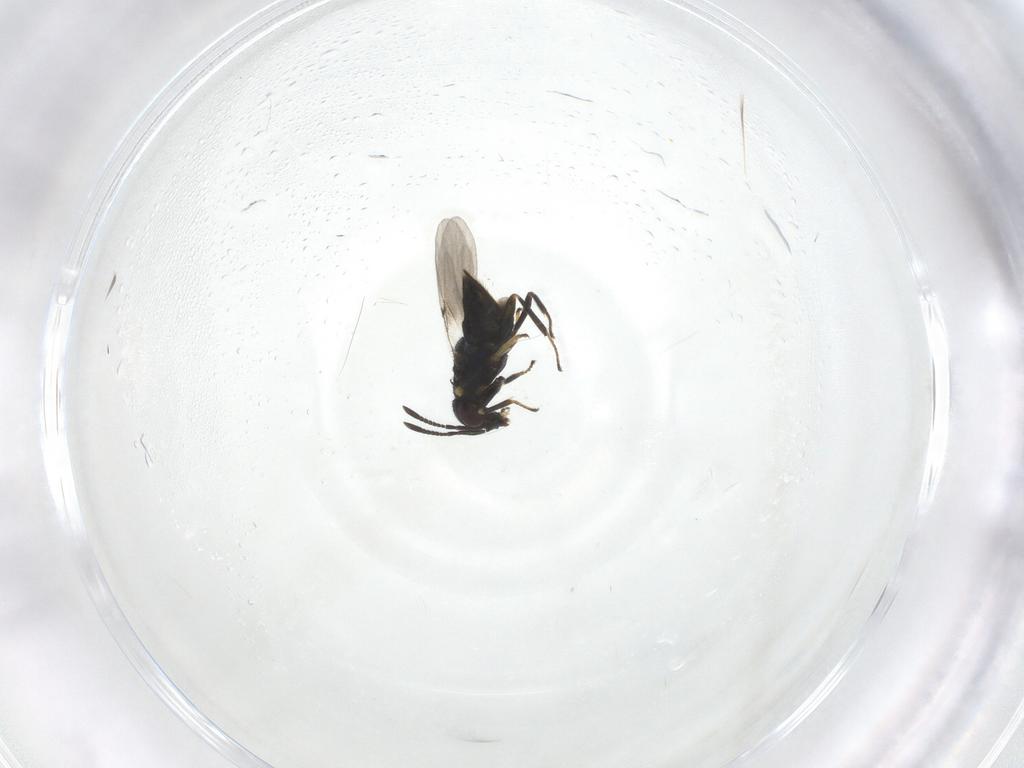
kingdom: Animalia
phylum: Arthropoda
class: Insecta
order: Hymenoptera
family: Encyrtidae
